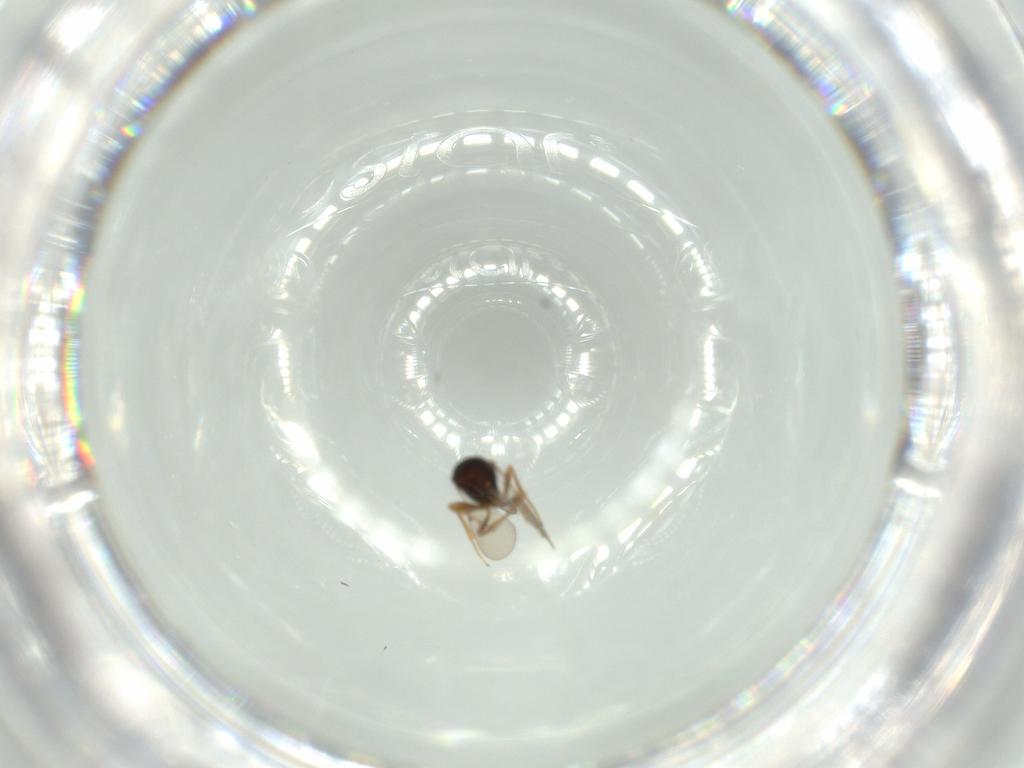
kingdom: Animalia
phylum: Arthropoda
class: Insecta
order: Hymenoptera
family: Scelionidae
